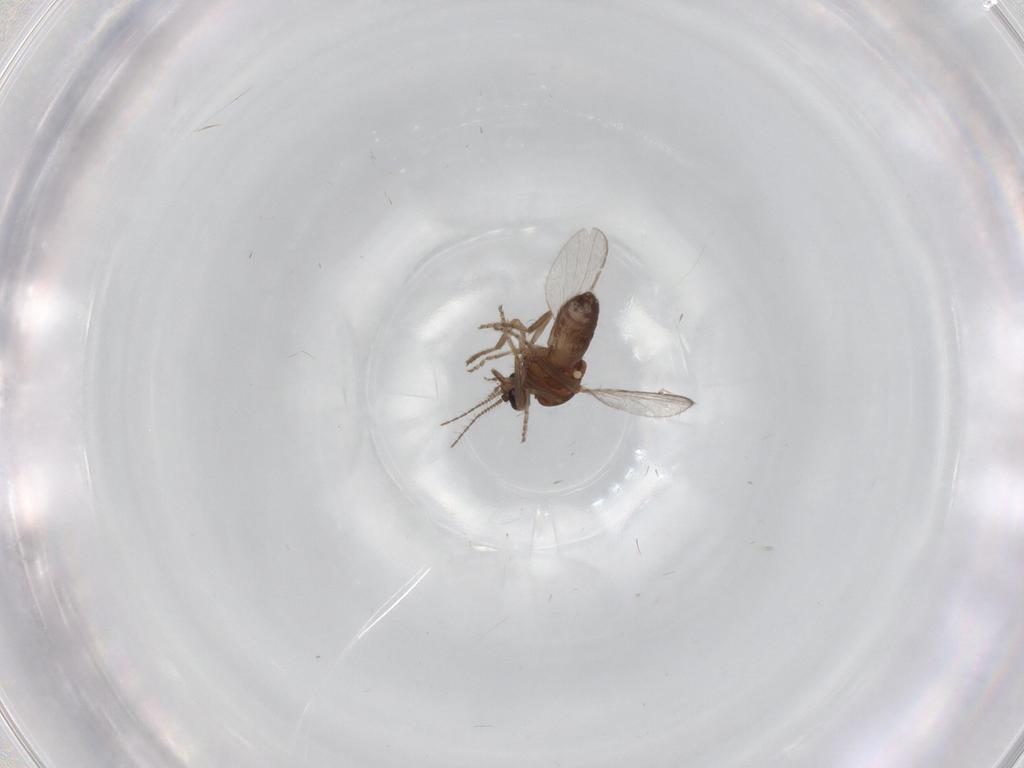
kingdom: Animalia
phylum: Arthropoda
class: Insecta
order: Diptera
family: Ceratopogonidae
